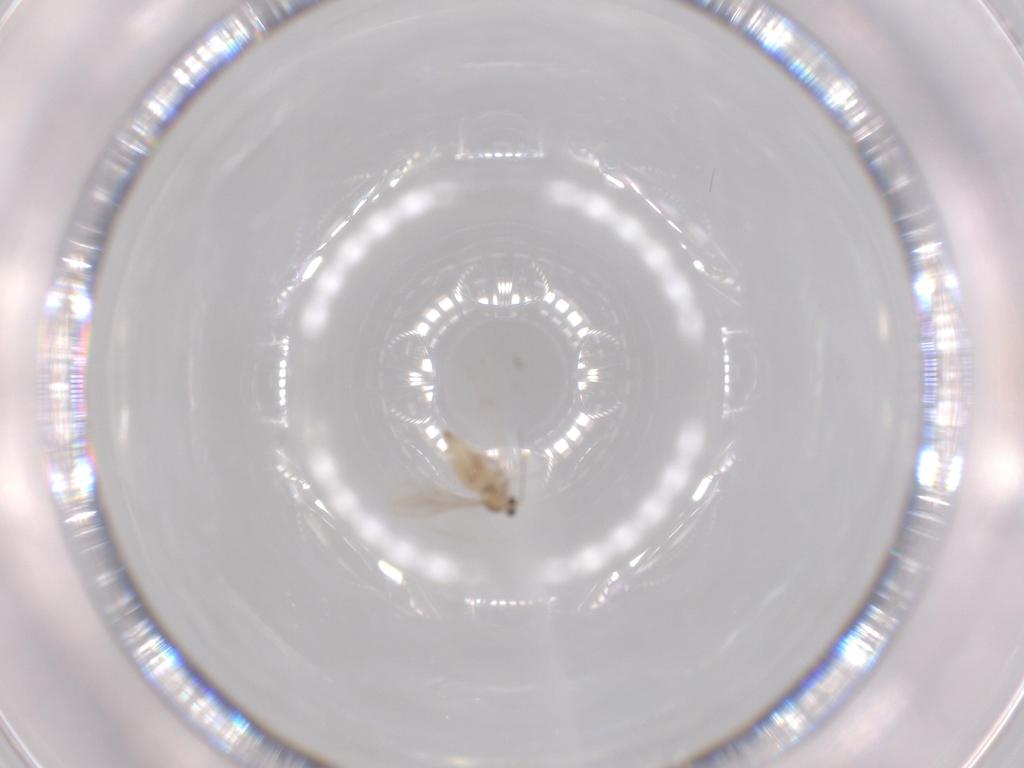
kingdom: Animalia
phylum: Arthropoda
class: Insecta
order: Diptera
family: Cecidomyiidae
